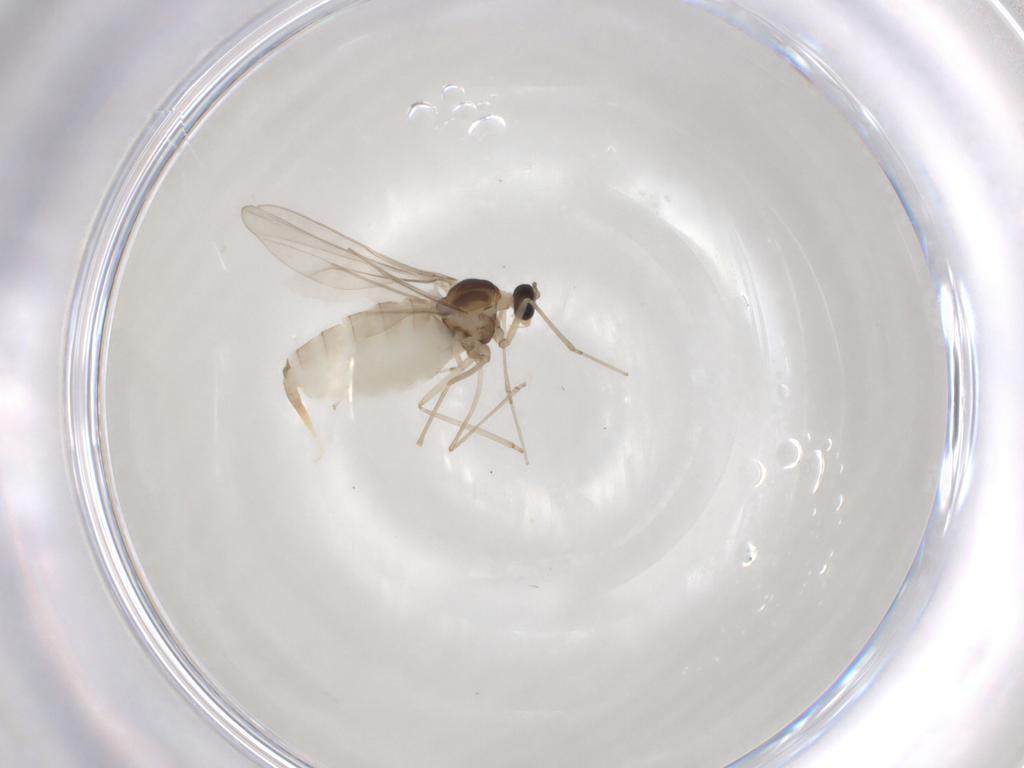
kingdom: Animalia
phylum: Arthropoda
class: Insecta
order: Diptera
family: Cecidomyiidae
